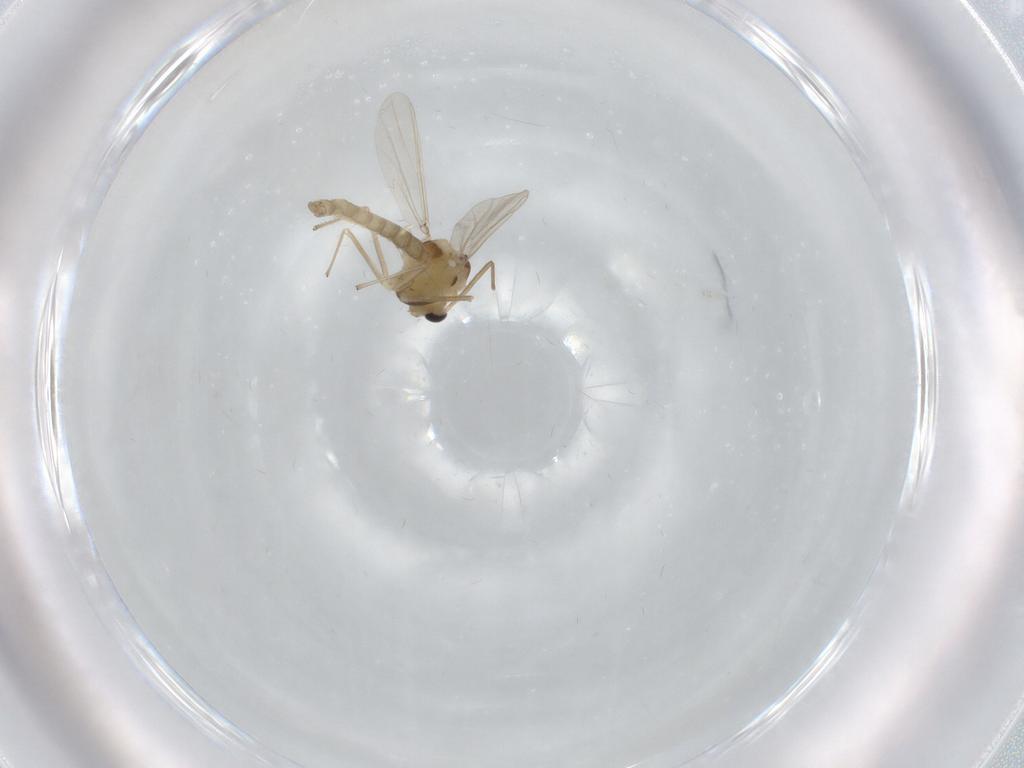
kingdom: Animalia
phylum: Arthropoda
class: Insecta
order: Diptera
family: Chironomidae
